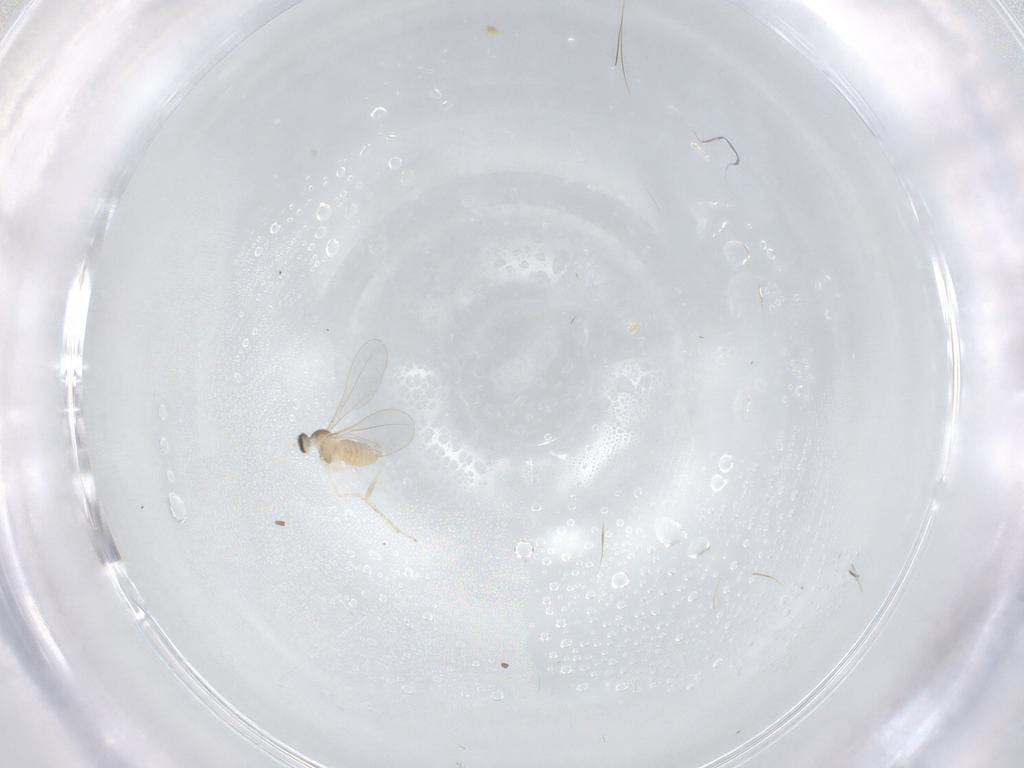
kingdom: Animalia
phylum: Arthropoda
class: Insecta
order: Diptera
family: Cecidomyiidae
